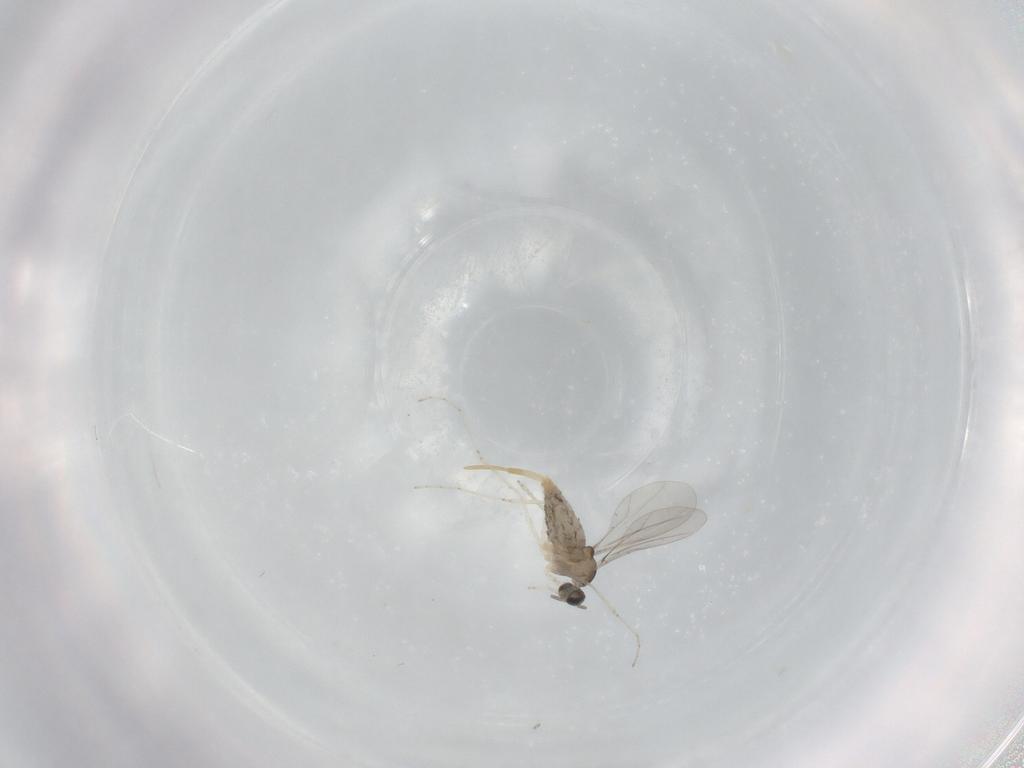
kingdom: Animalia
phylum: Arthropoda
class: Insecta
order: Diptera
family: Cecidomyiidae
